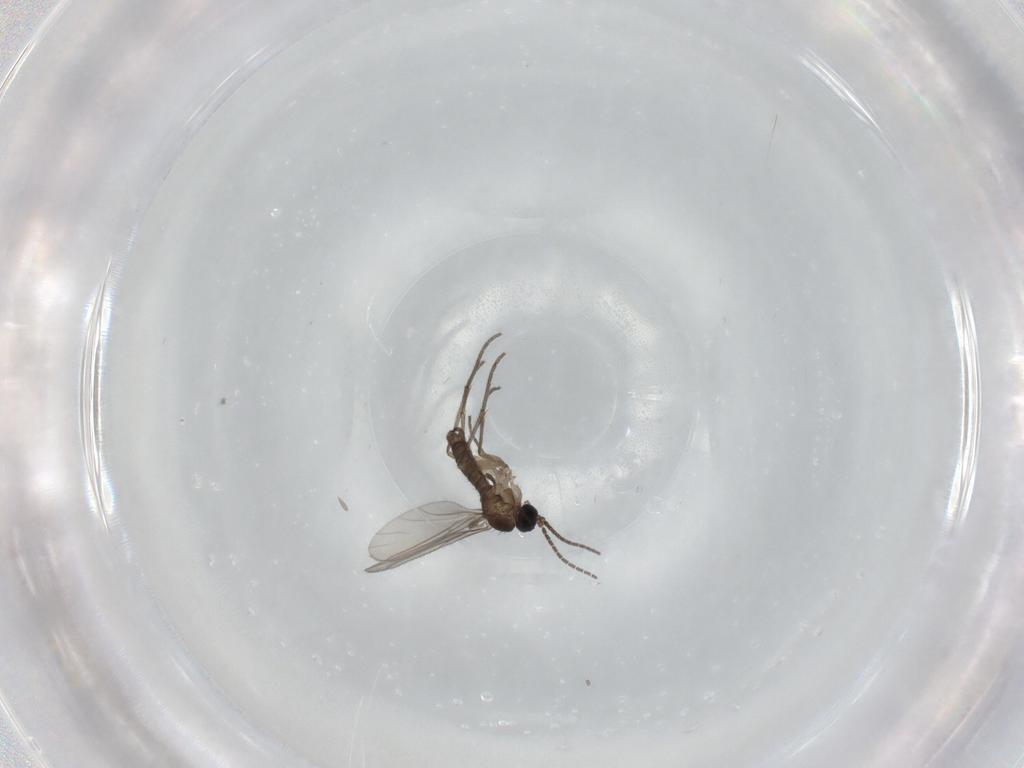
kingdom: Animalia
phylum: Arthropoda
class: Insecta
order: Diptera
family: Sciaridae
